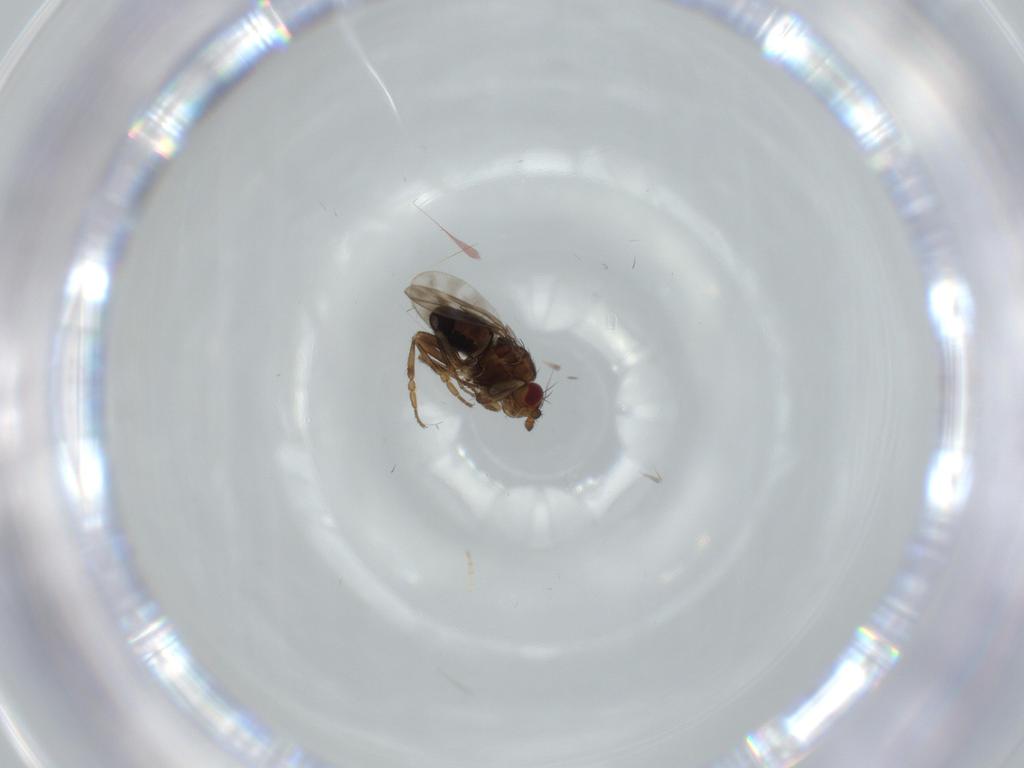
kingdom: Animalia
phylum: Arthropoda
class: Insecta
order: Diptera
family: Sphaeroceridae
